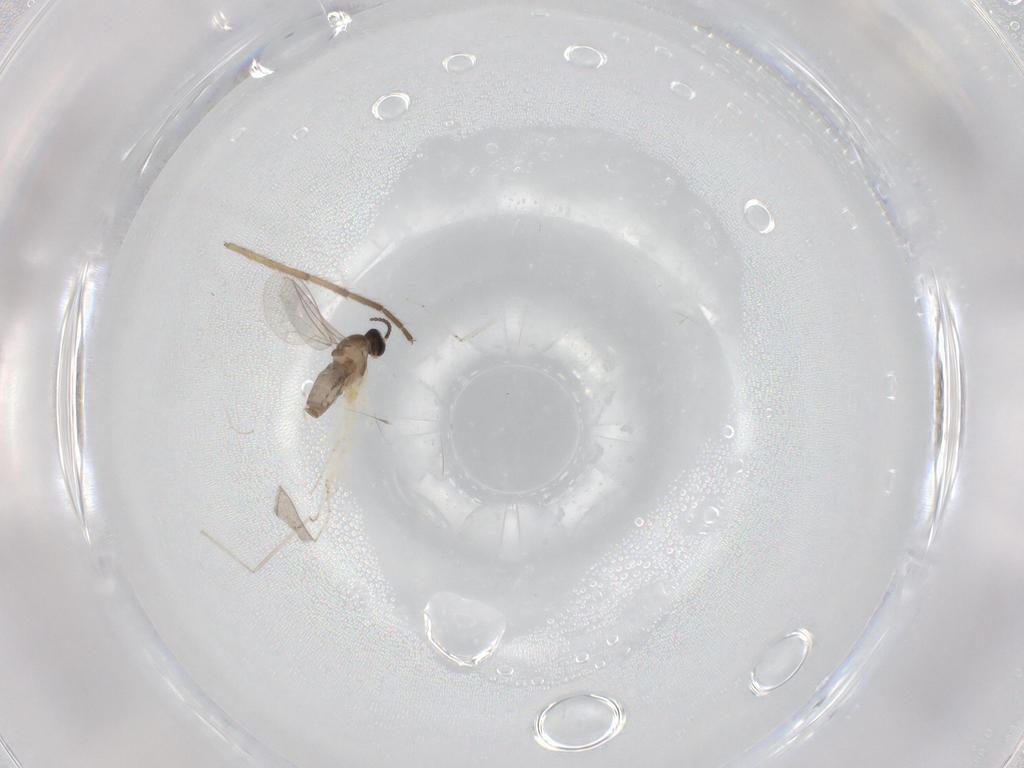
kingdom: Animalia
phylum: Arthropoda
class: Insecta
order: Diptera
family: Cecidomyiidae
